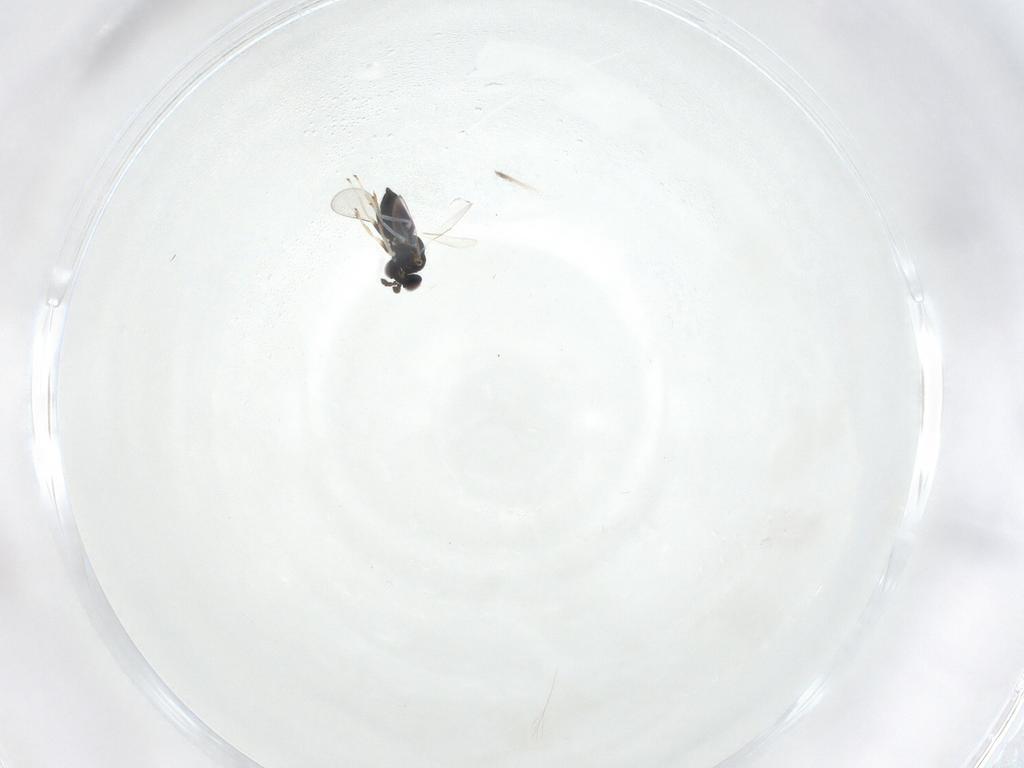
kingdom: Animalia
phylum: Arthropoda
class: Insecta
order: Hymenoptera
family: Eulophidae
